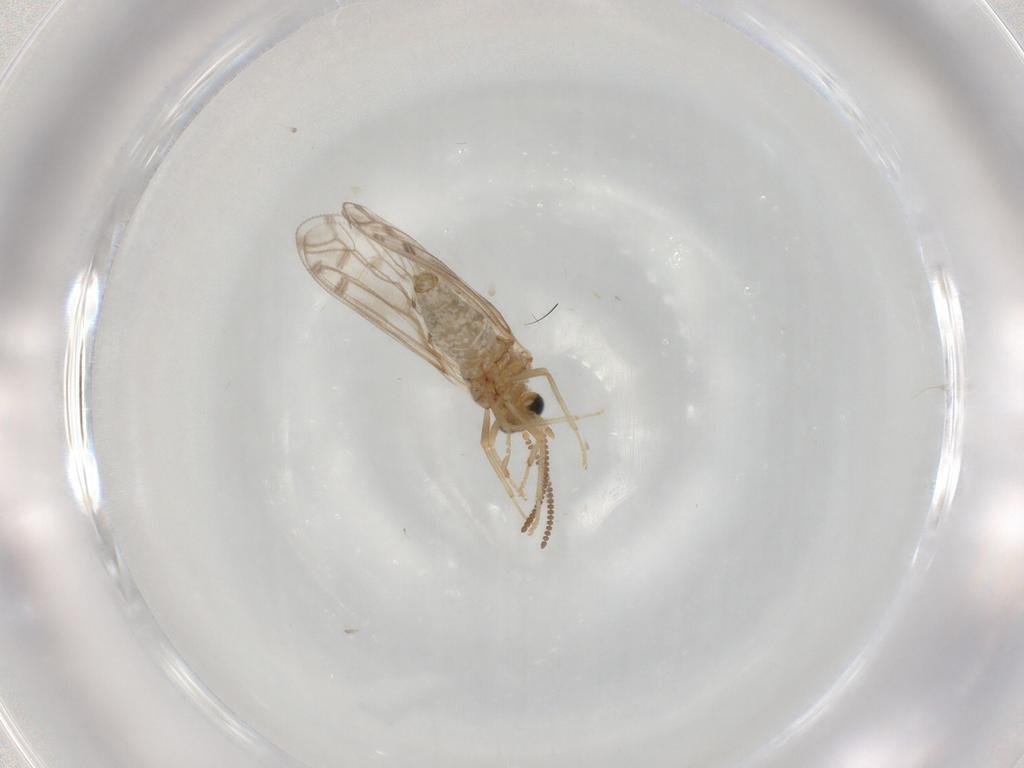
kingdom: Animalia
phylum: Arthropoda
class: Insecta
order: Neuroptera
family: Coniopterygidae
